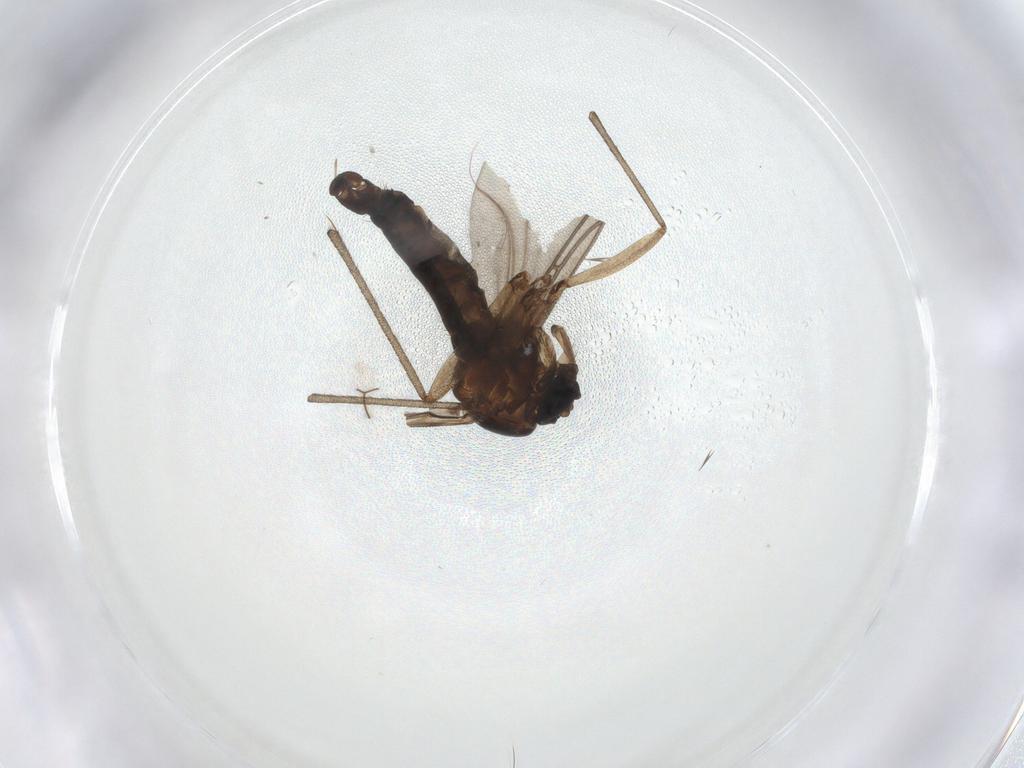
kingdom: Animalia
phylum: Arthropoda
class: Insecta
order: Diptera
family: Sciaridae
